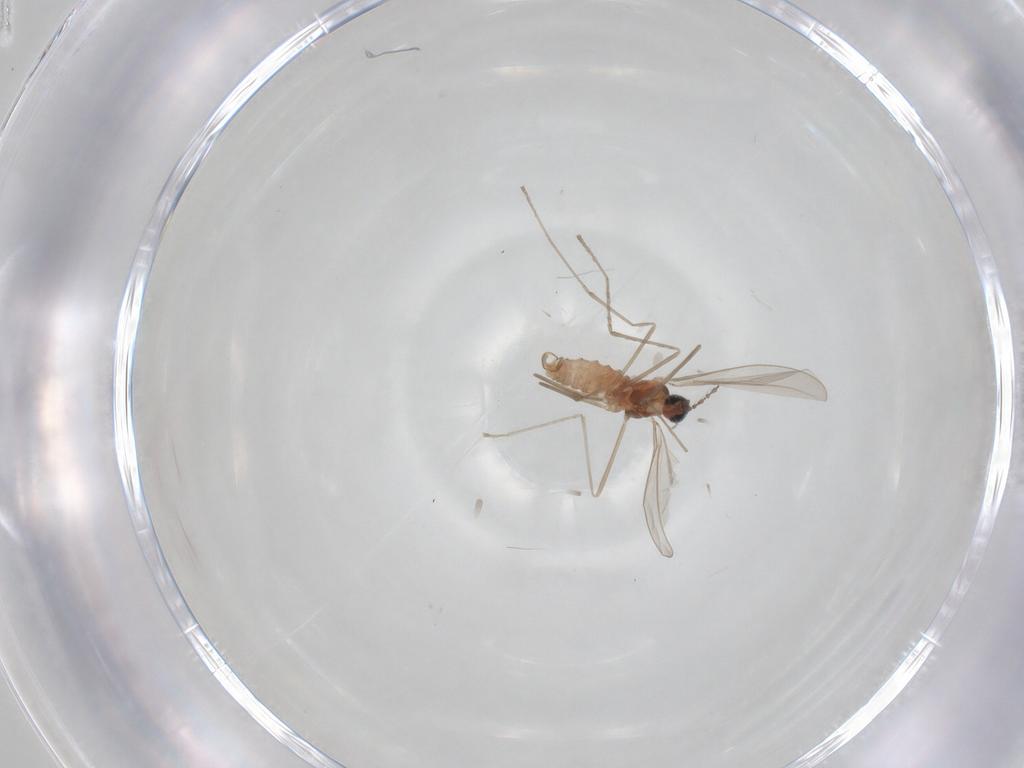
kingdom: Animalia
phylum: Arthropoda
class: Insecta
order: Diptera
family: Cecidomyiidae
